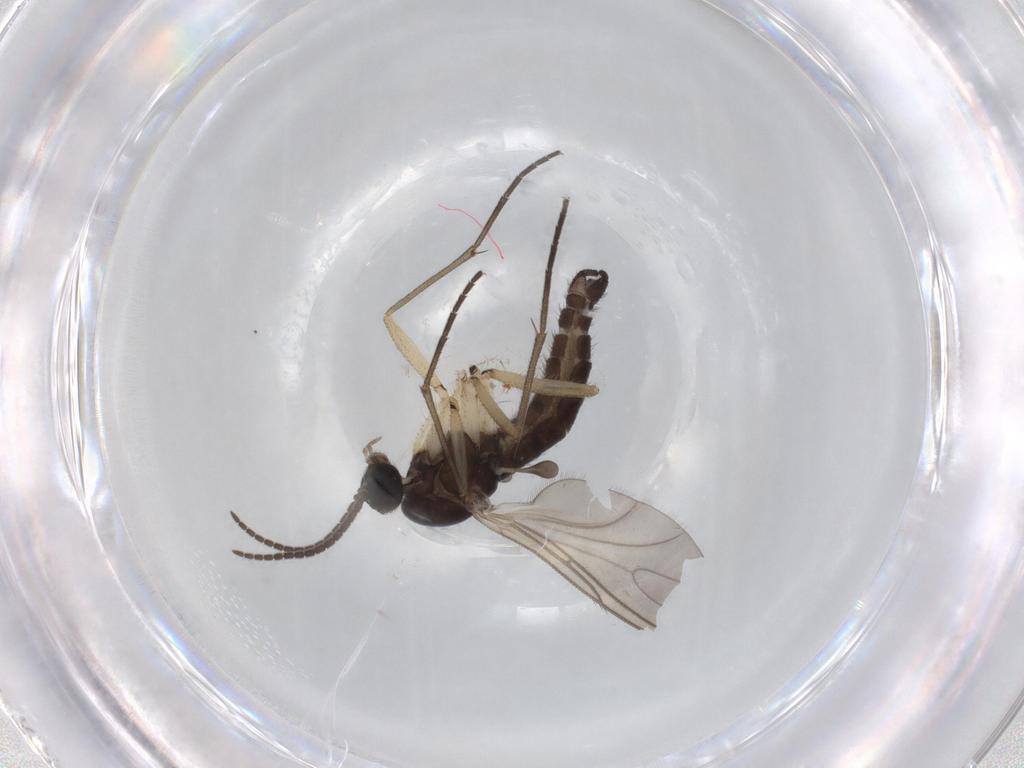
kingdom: Animalia
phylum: Arthropoda
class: Insecta
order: Diptera
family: Sciaridae
